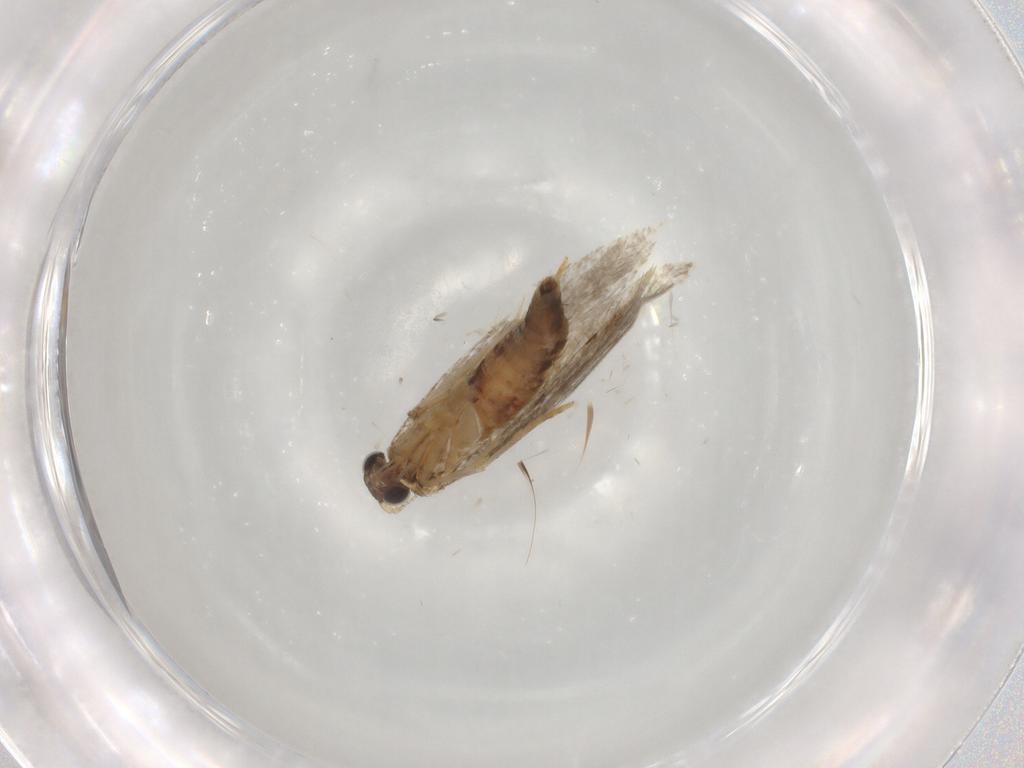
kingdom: Animalia
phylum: Arthropoda
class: Insecta
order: Lepidoptera
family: Tineidae
